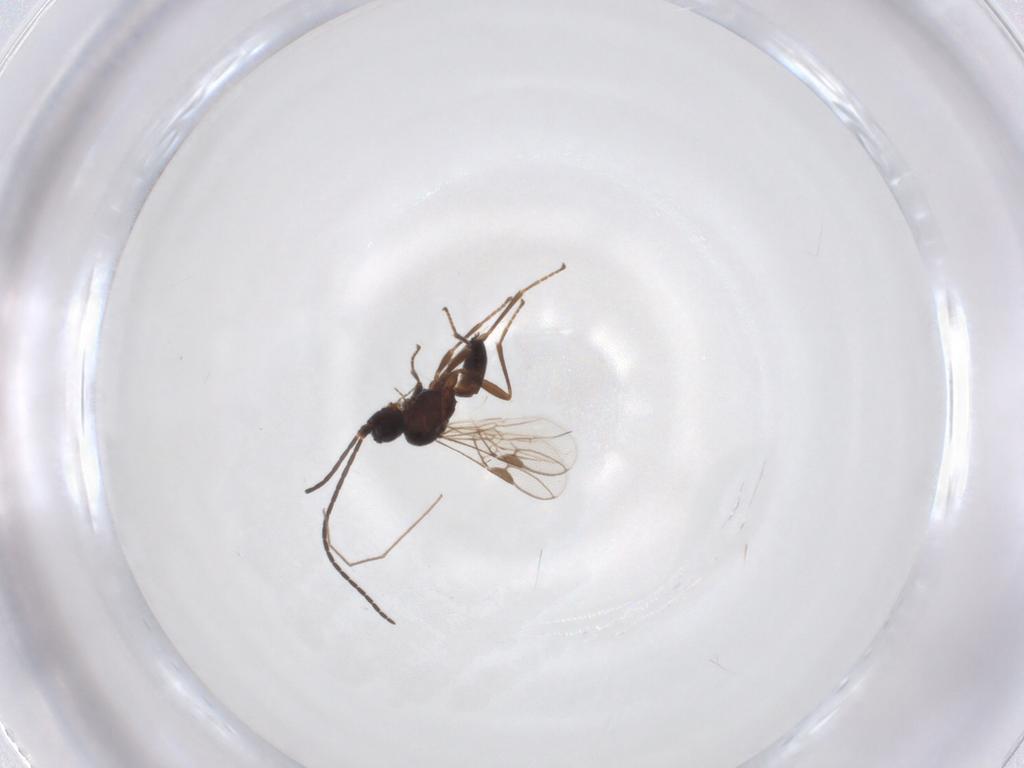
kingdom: Animalia
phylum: Arthropoda
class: Insecta
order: Hymenoptera
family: Braconidae
